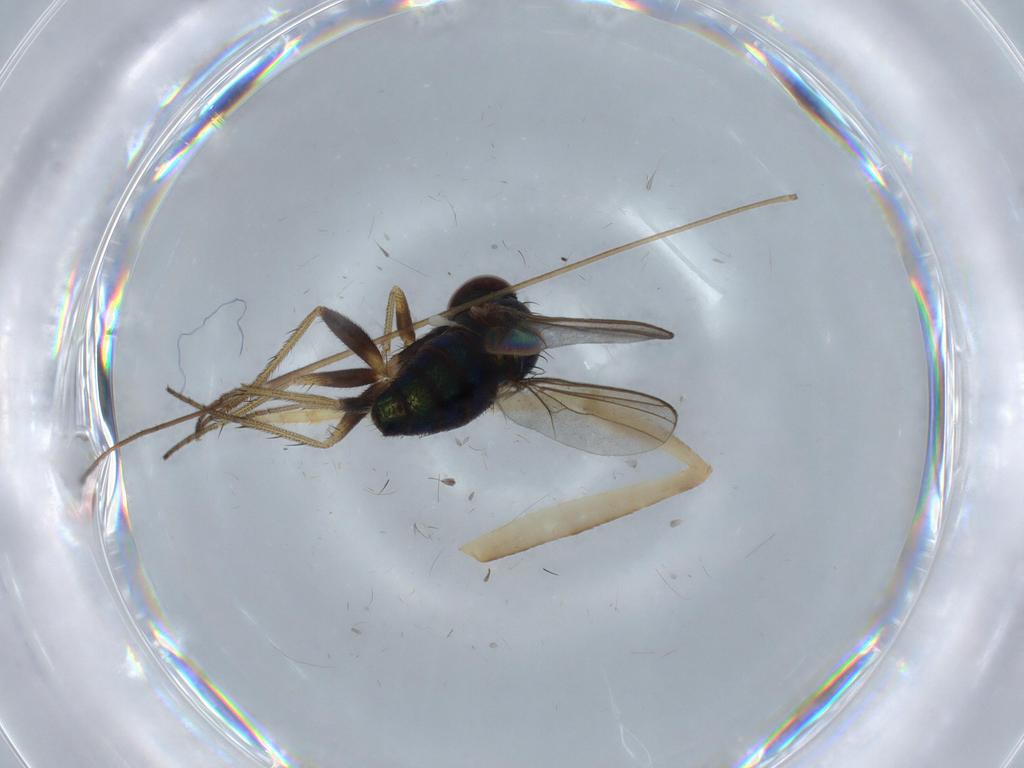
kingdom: Animalia
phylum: Arthropoda
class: Insecta
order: Diptera
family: Dolichopodidae
